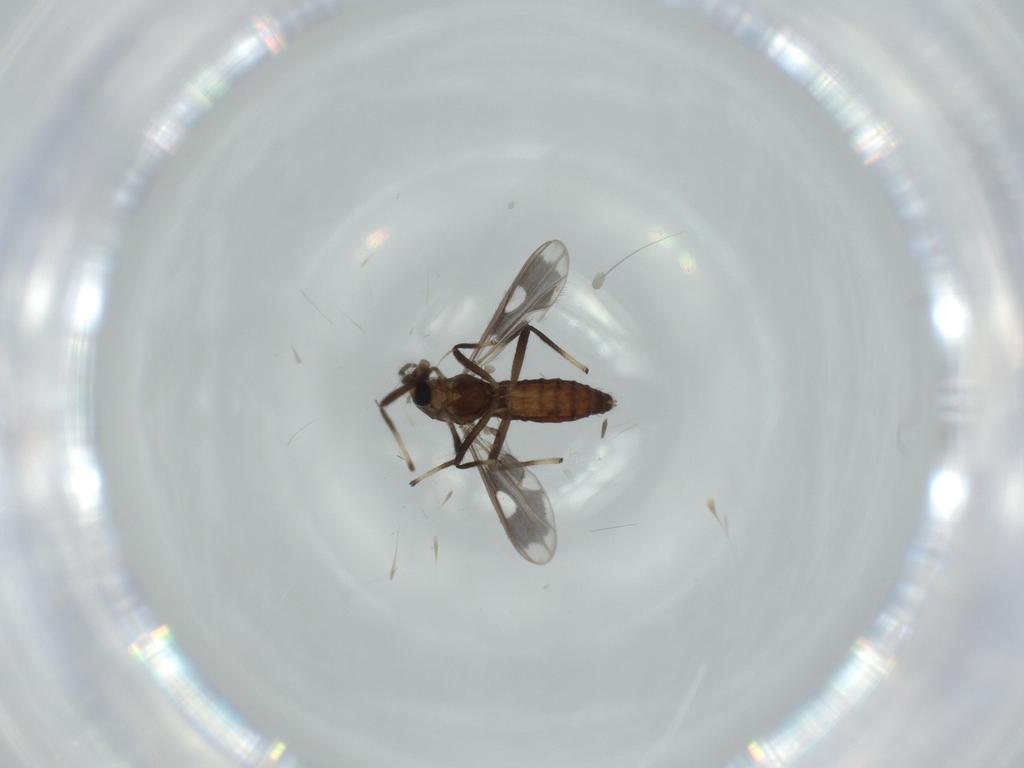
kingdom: Animalia
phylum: Arthropoda
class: Insecta
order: Diptera
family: Chironomidae
